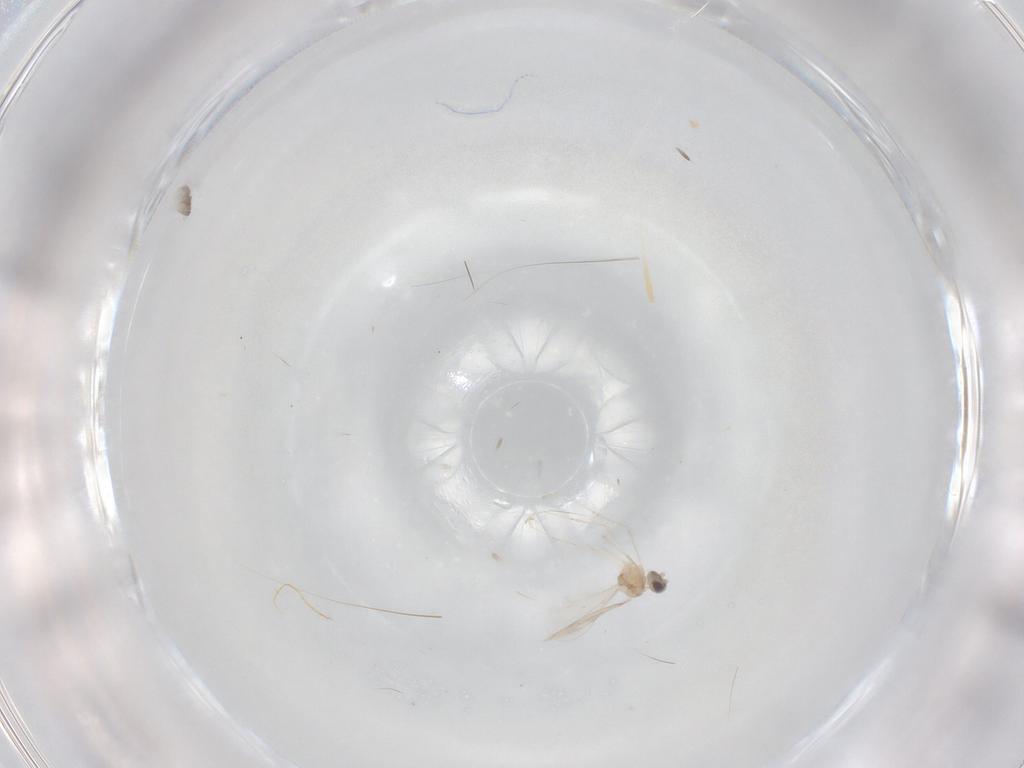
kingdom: Animalia
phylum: Arthropoda
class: Insecta
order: Diptera
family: Cecidomyiidae
